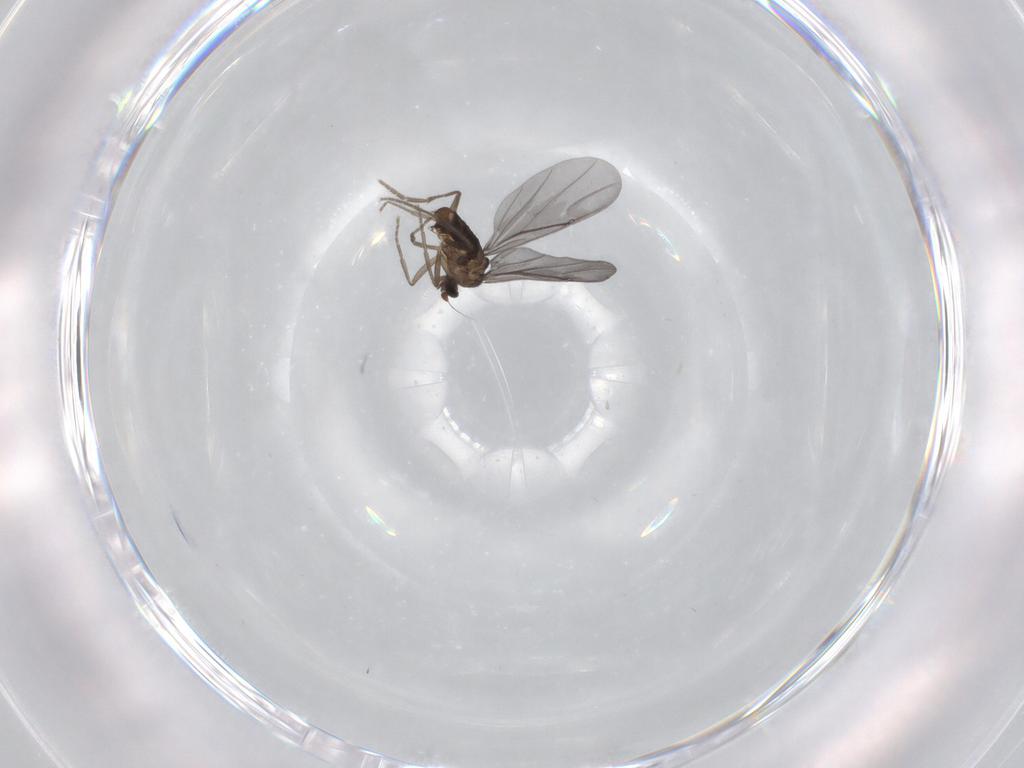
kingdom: Animalia
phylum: Arthropoda
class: Insecta
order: Diptera
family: Phoridae
